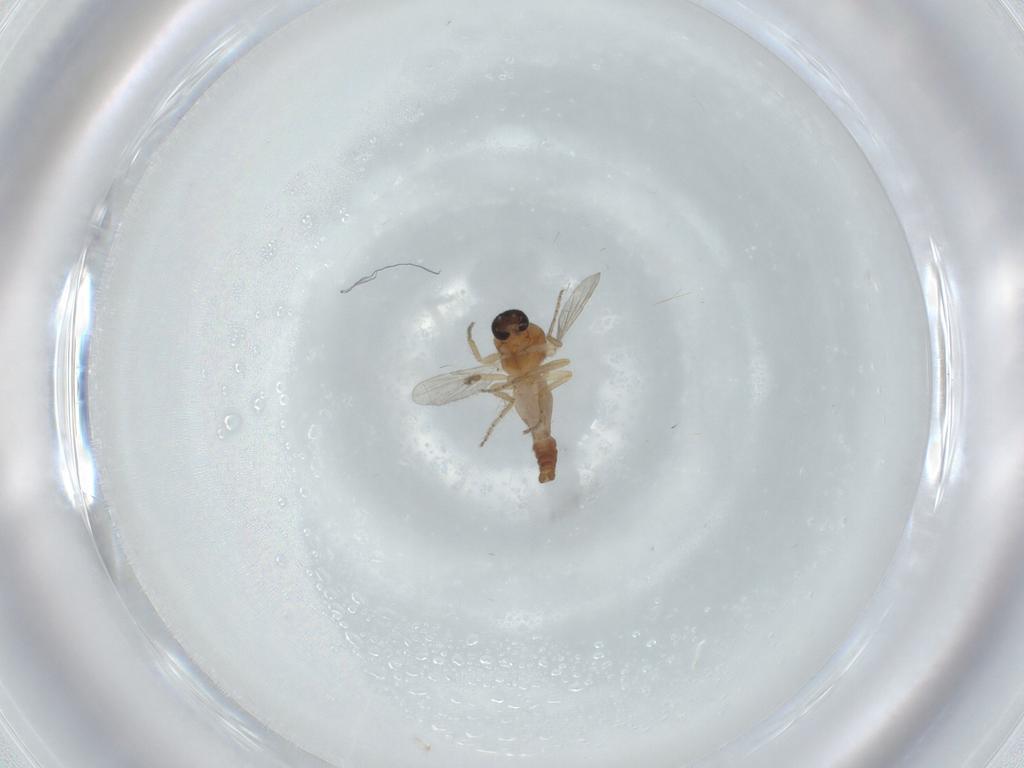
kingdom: Animalia
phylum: Arthropoda
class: Insecta
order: Diptera
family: Ceratopogonidae
